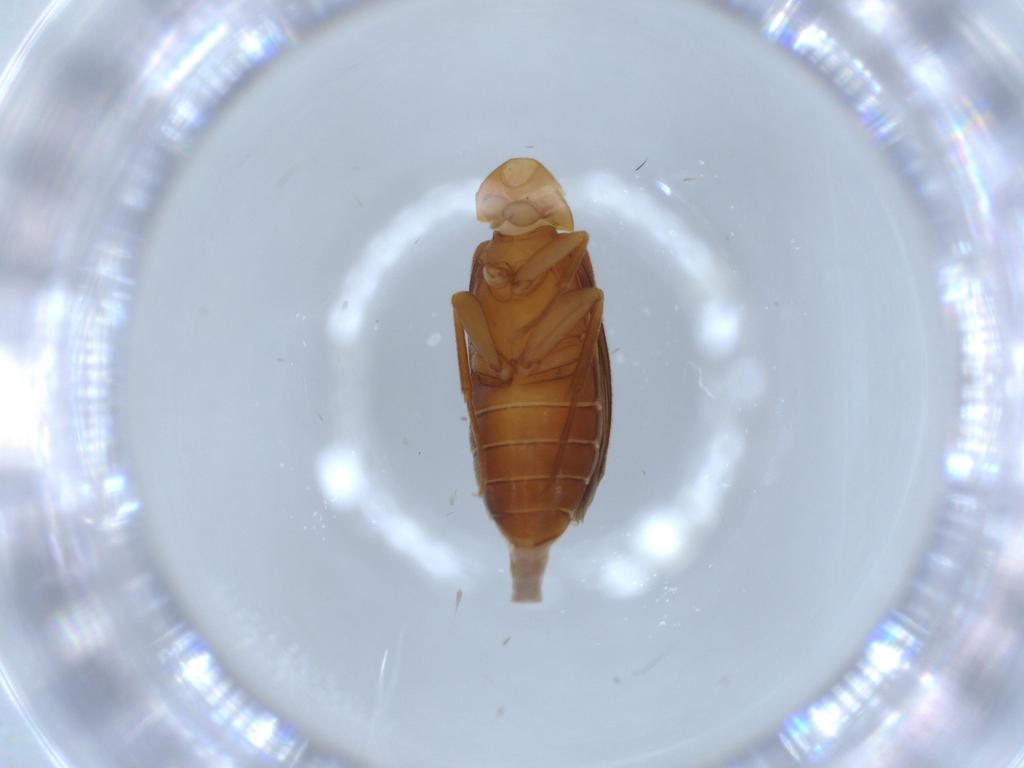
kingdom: Animalia
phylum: Arthropoda
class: Insecta
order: Coleoptera
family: Scraptiidae
